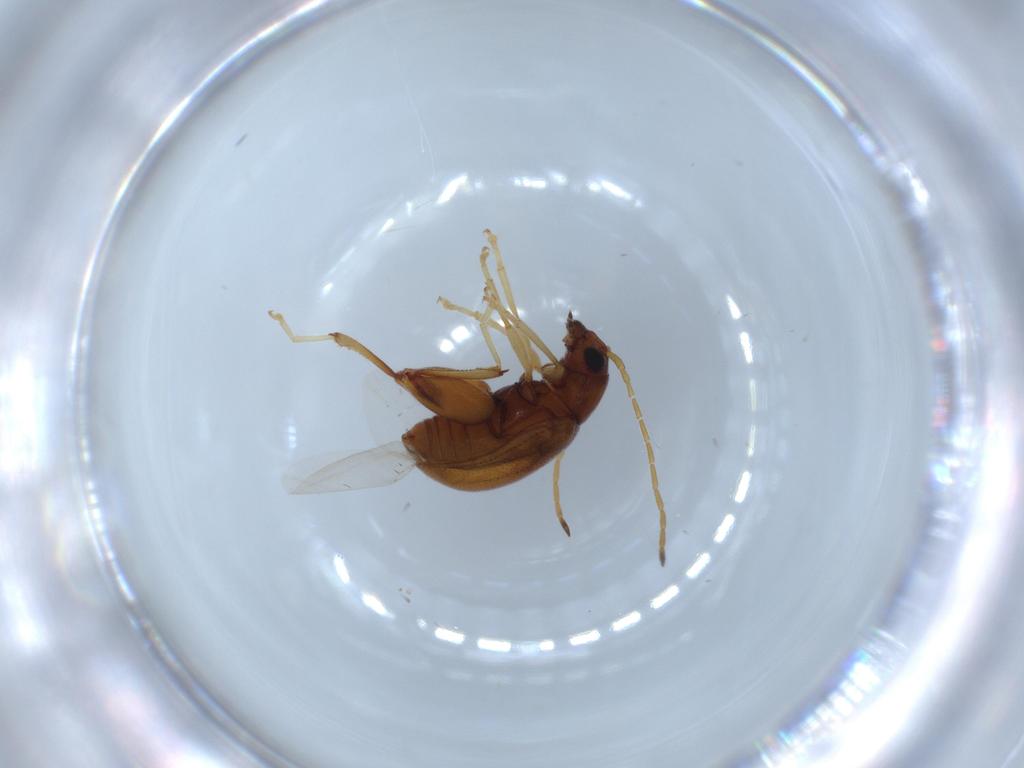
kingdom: Animalia
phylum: Arthropoda
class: Insecta
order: Coleoptera
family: Chrysomelidae
